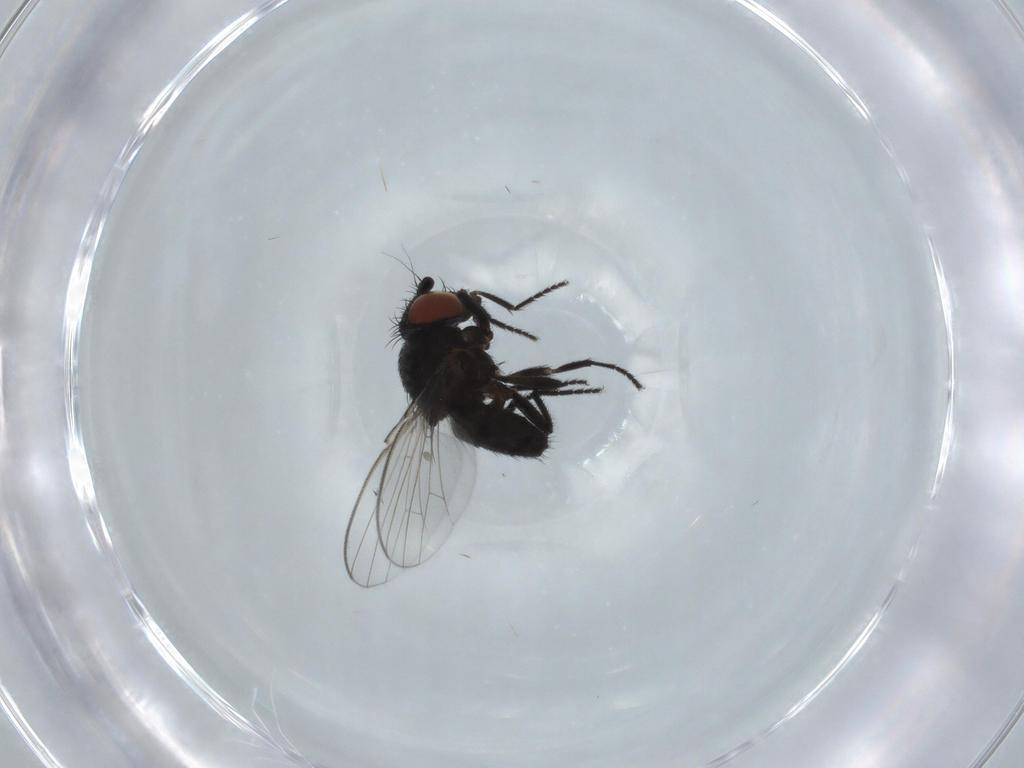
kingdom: Animalia
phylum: Arthropoda
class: Insecta
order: Diptera
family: Milichiidae
